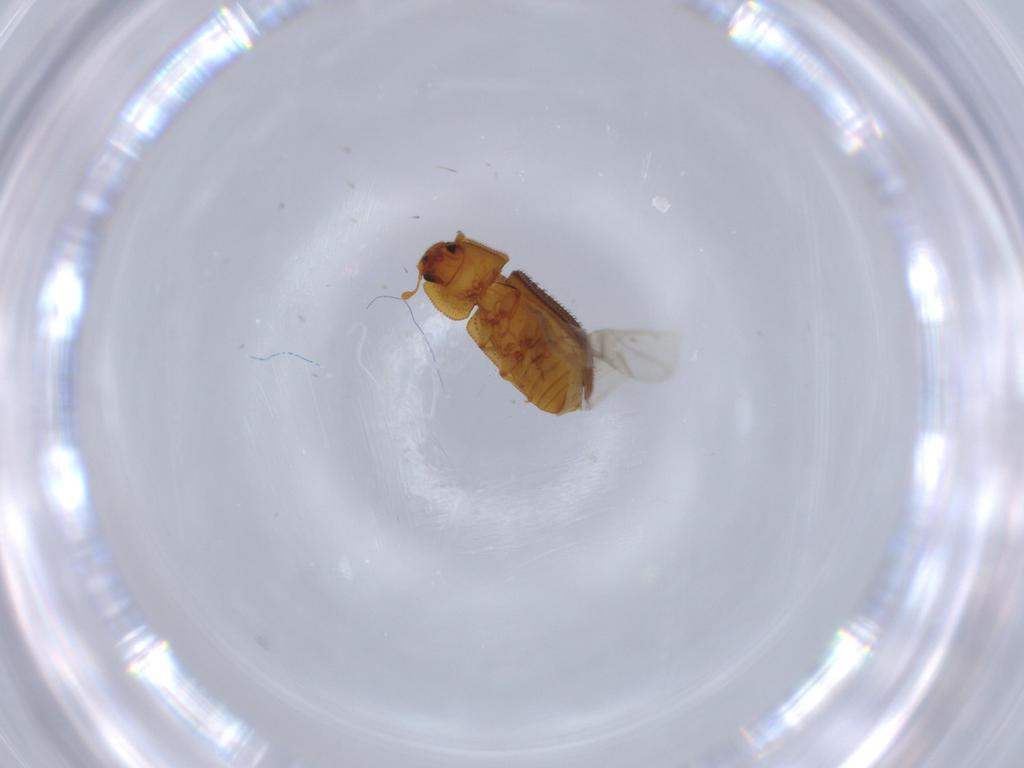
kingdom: Animalia
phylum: Arthropoda
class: Insecta
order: Coleoptera
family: Zopheridae
